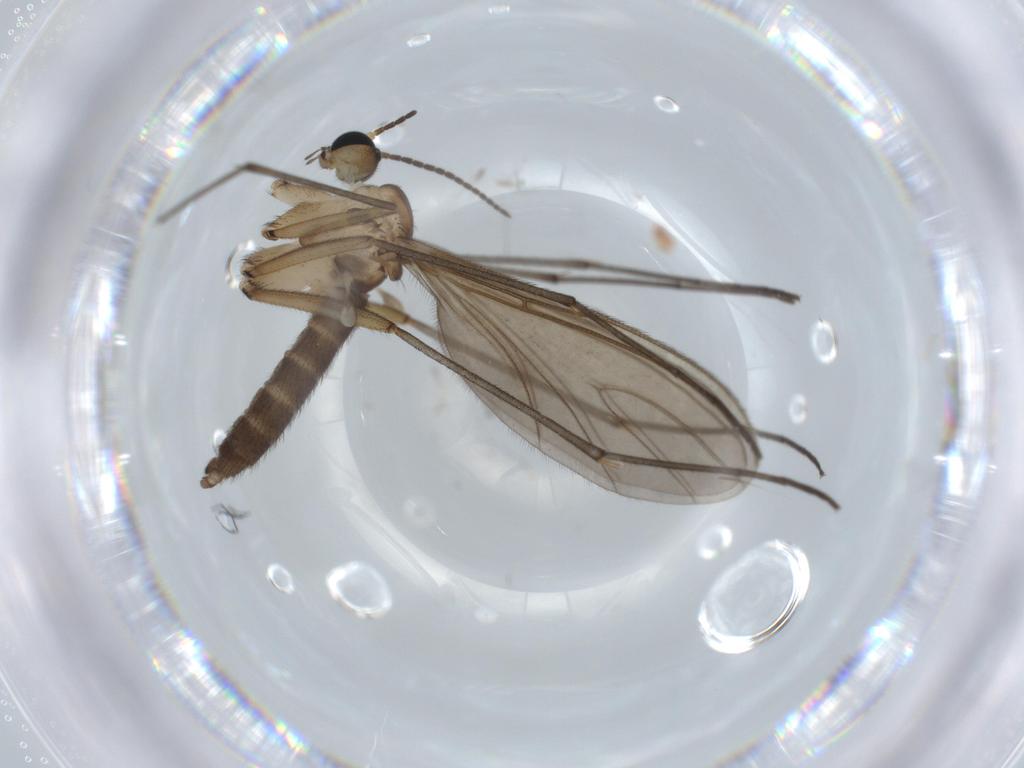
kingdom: Animalia
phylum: Arthropoda
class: Insecta
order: Diptera
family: Cecidomyiidae
